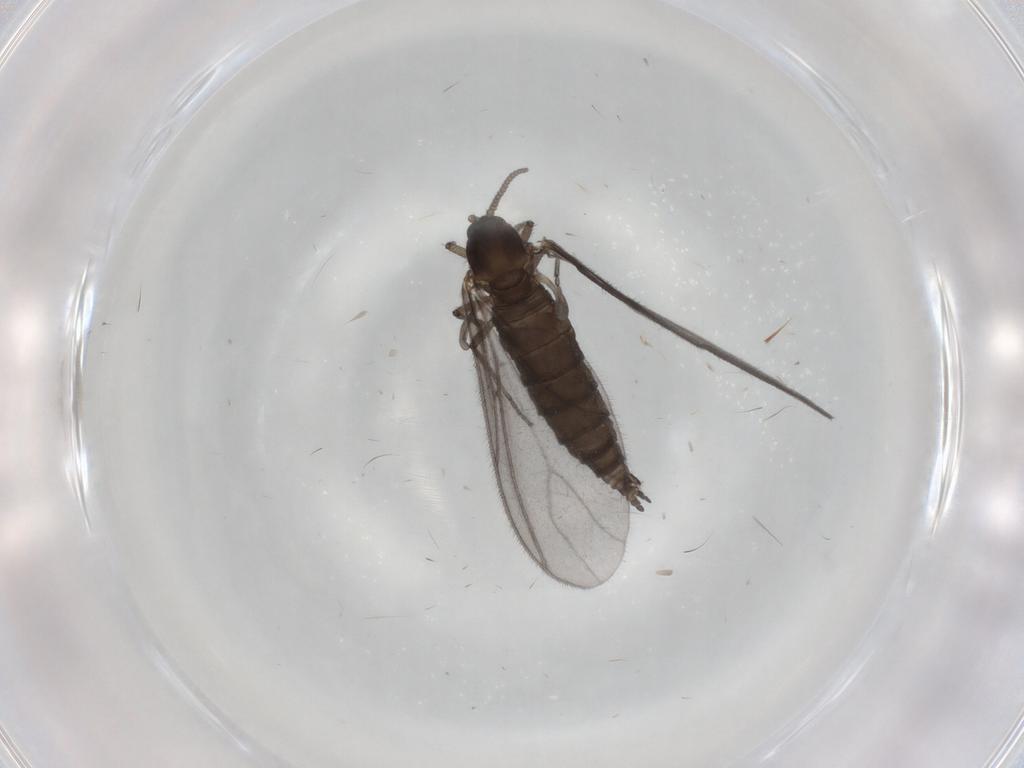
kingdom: Animalia
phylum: Arthropoda
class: Insecta
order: Diptera
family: Sciaridae
